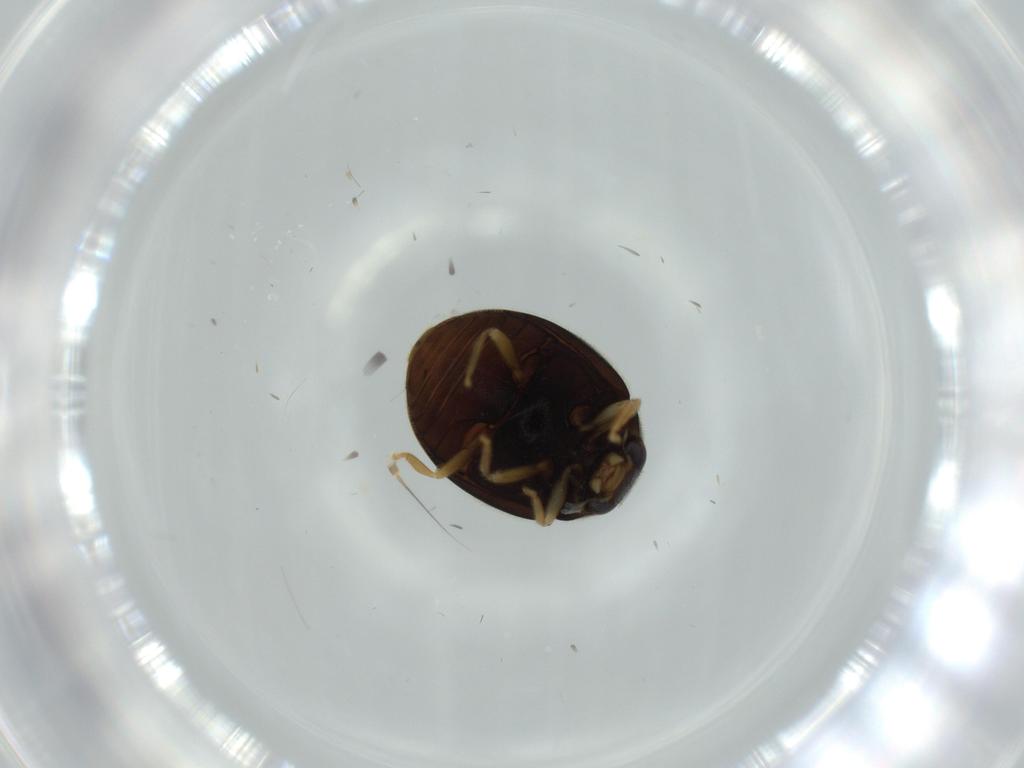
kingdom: Animalia
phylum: Arthropoda
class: Insecta
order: Coleoptera
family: Coccinellidae
